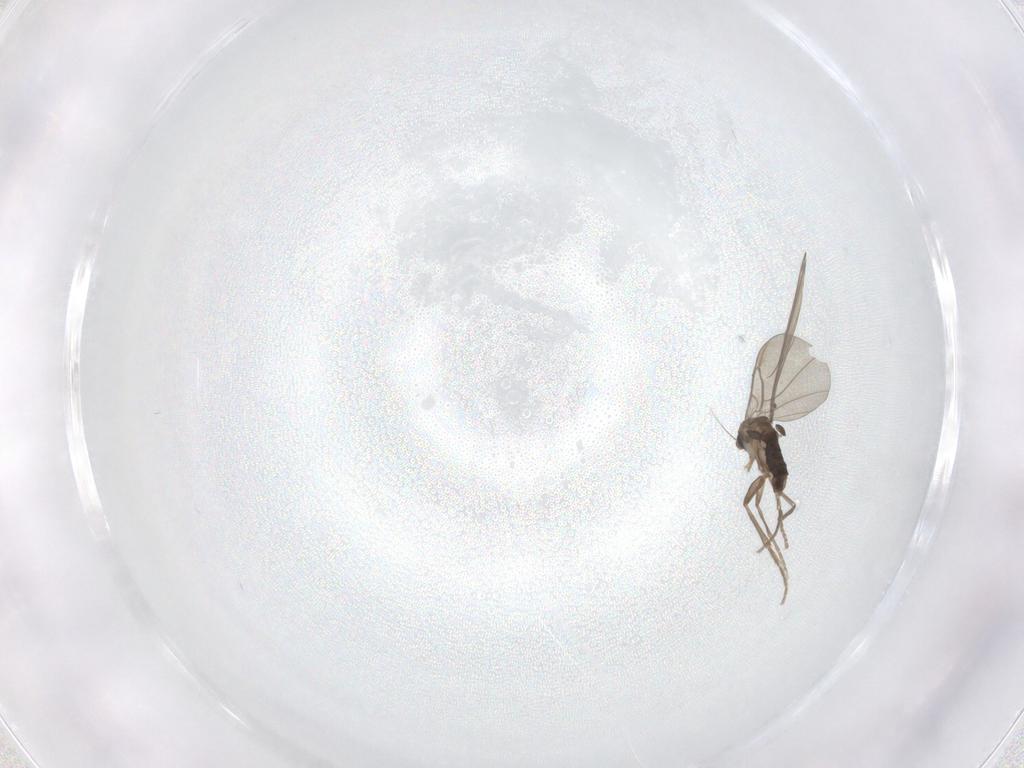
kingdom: Animalia
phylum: Arthropoda
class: Insecta
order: Diptera
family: Phoridae
